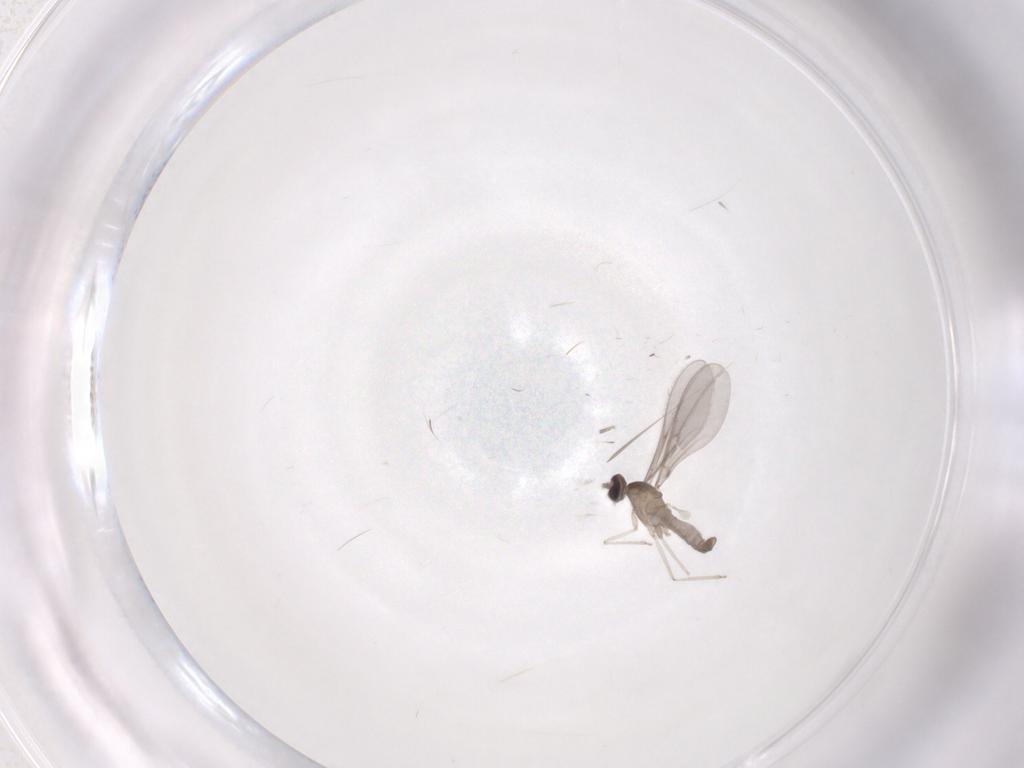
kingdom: Animalia
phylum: Arthropoda
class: Insecta
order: Diptera
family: Cecidomyiidae
